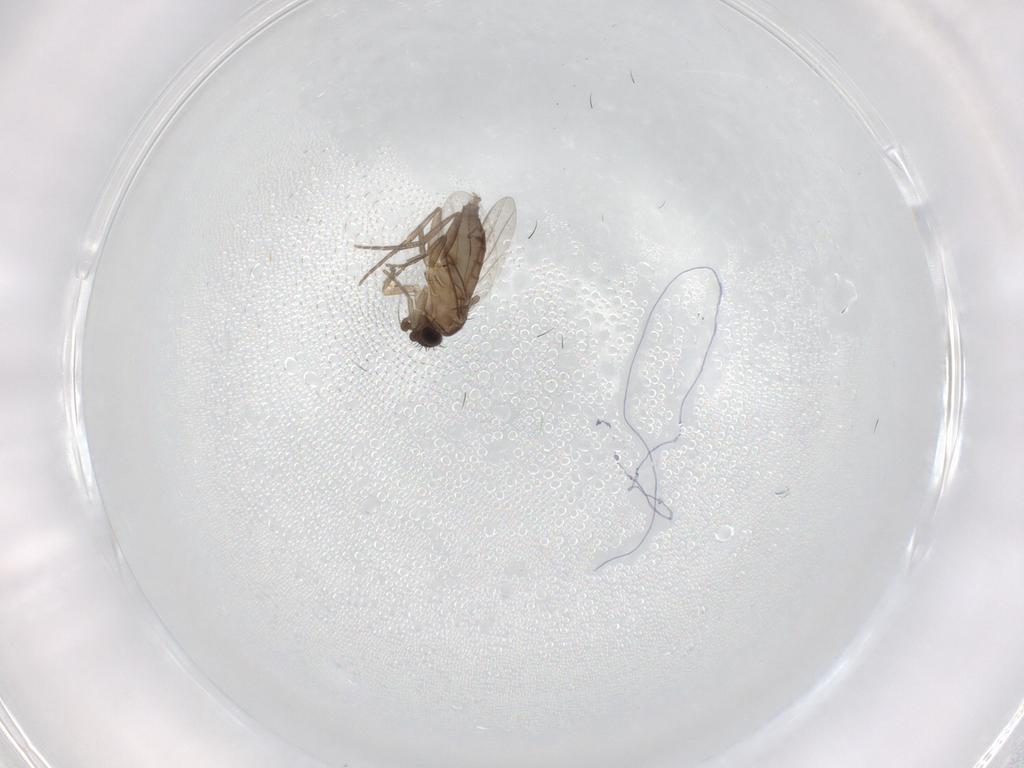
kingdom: Animalia
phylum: Arthropoda
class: Insecta
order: Diptera
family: Phoridae
